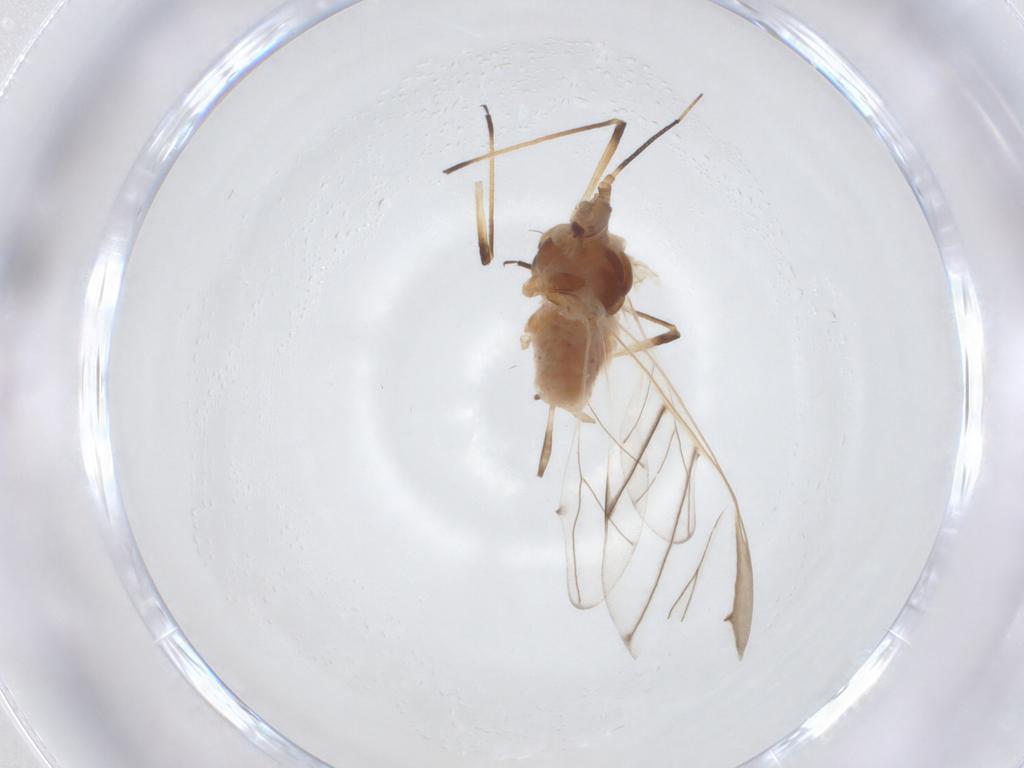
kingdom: Animalia
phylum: Arthropoda
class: Insecta
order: Hemiptera
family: Aphididae
